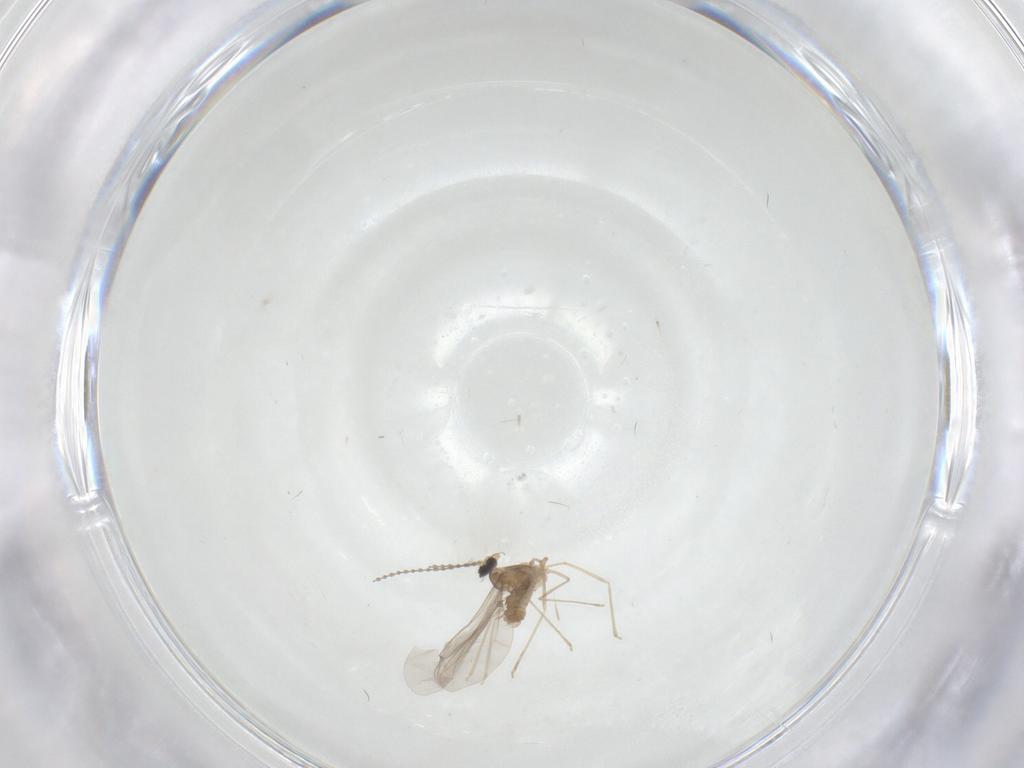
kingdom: Animalia
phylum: Arthropoda
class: Insecta
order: Diptera
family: Cecidomyiidae
